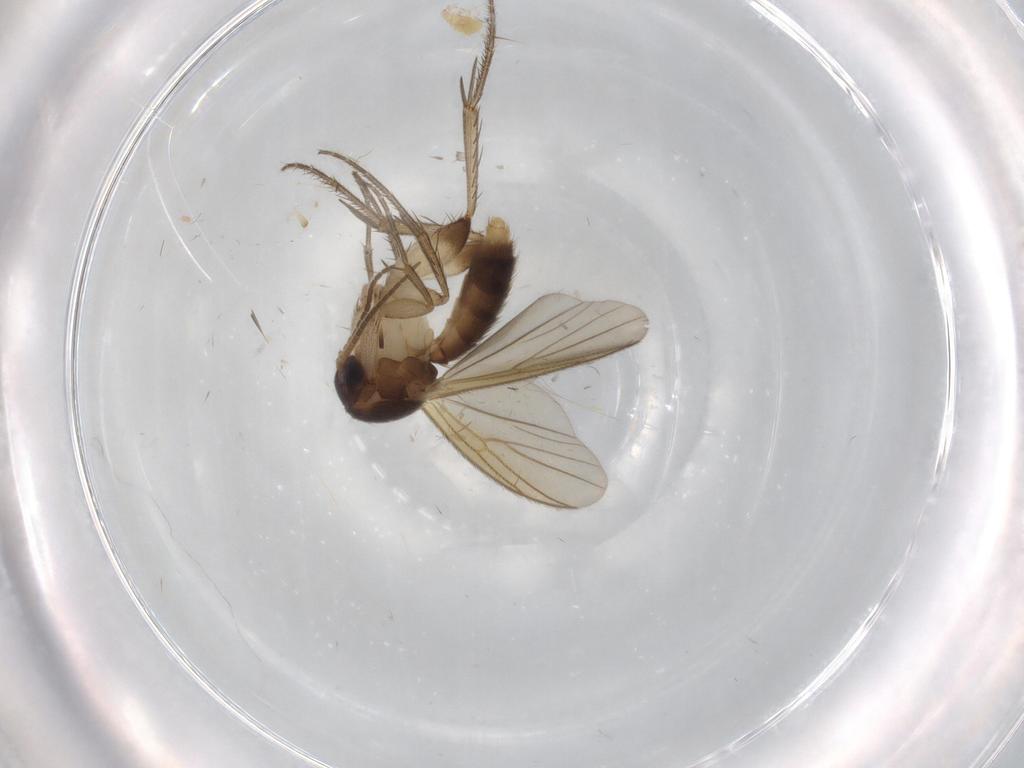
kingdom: Animalia
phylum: Arthropoda
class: Insecta
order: Diptera
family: Mycetophilidae
